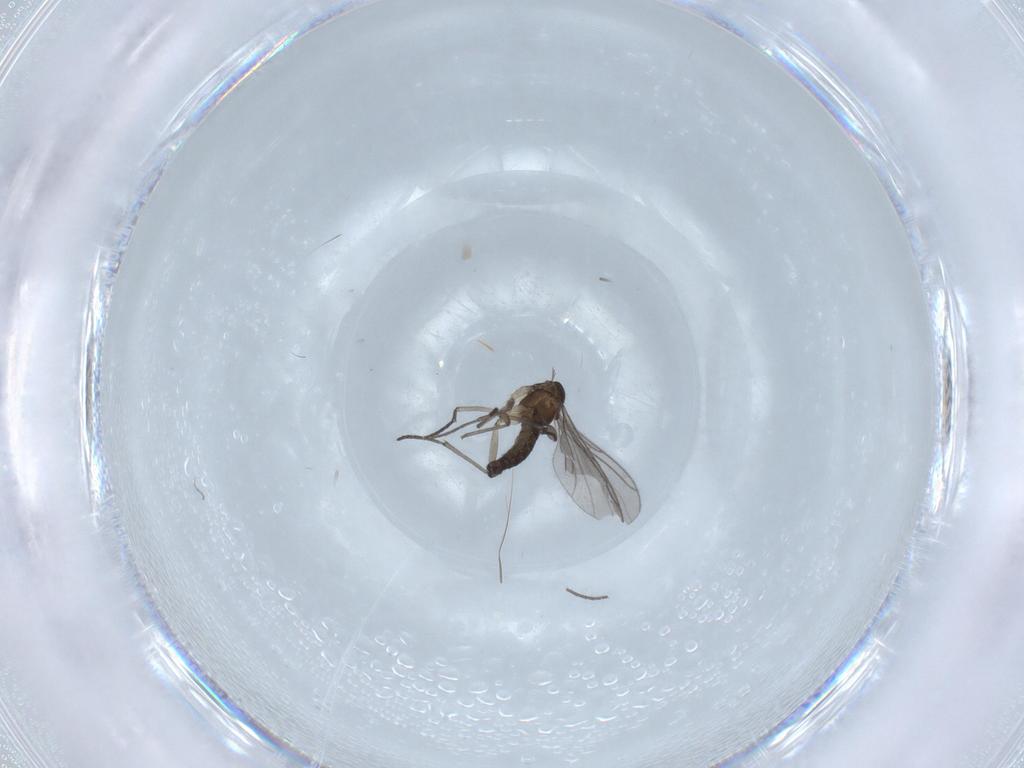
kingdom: Animalia
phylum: Arthropoda
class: Insecta
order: Diptera
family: Sciaridae
